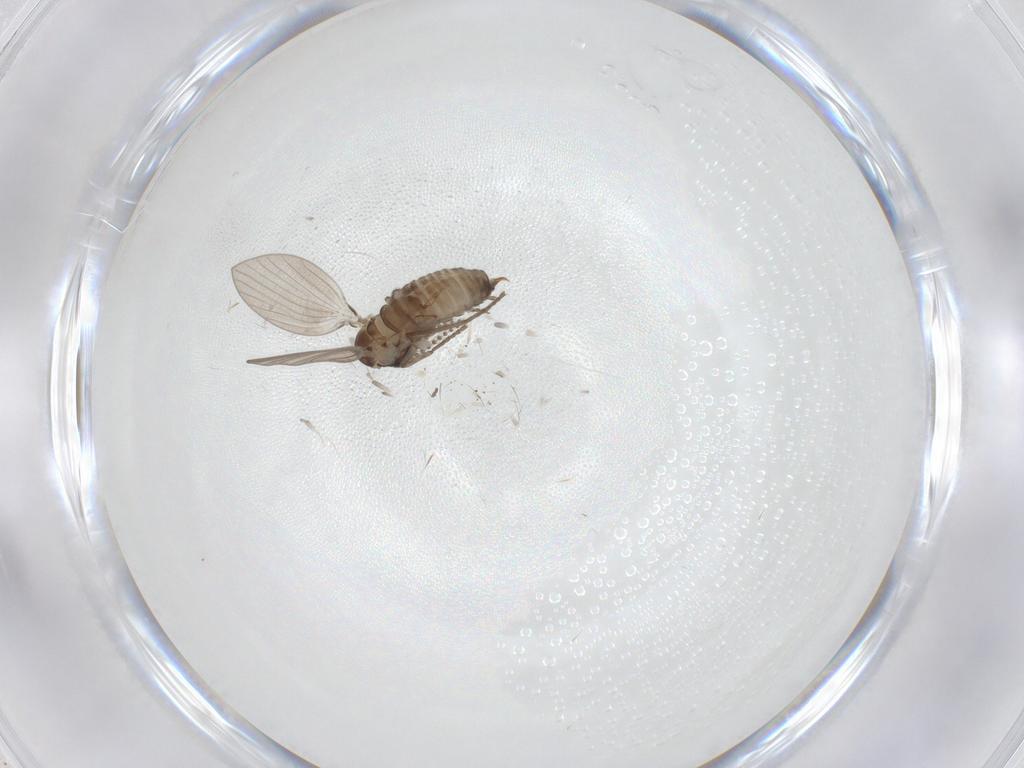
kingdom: Animalia
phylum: Arthropoda
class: Insecta
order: Diptera
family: Psychodidae
